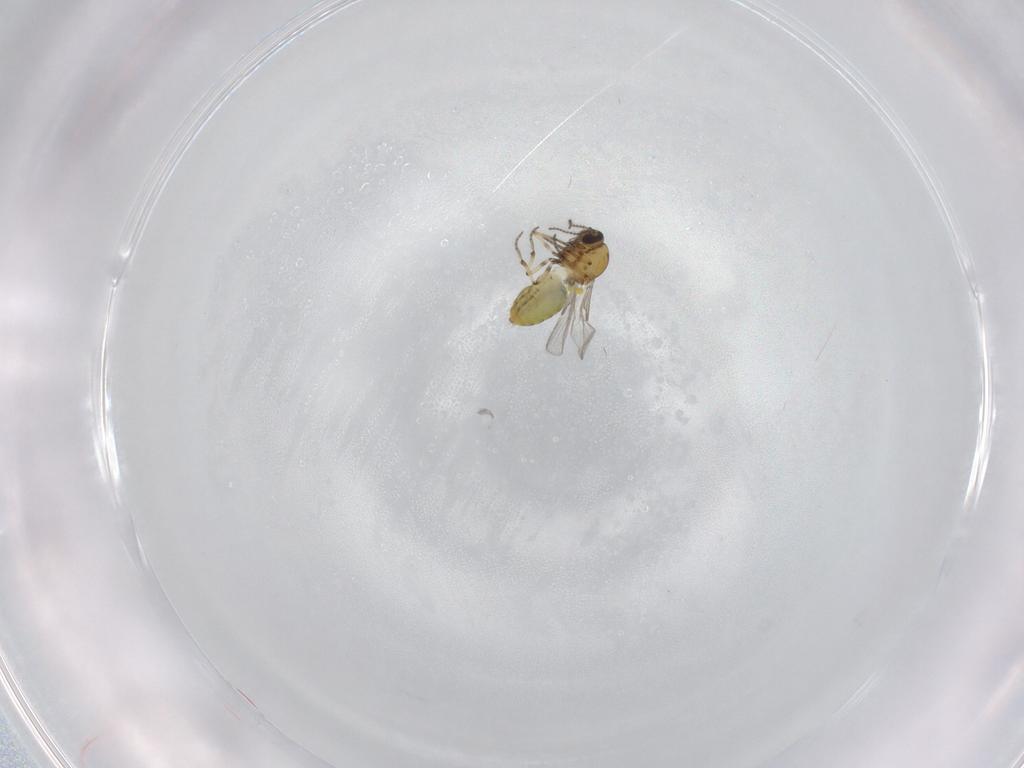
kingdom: Animalia
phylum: Arthropoda
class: Insecta
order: Diptera
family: Ceratopogonidae
